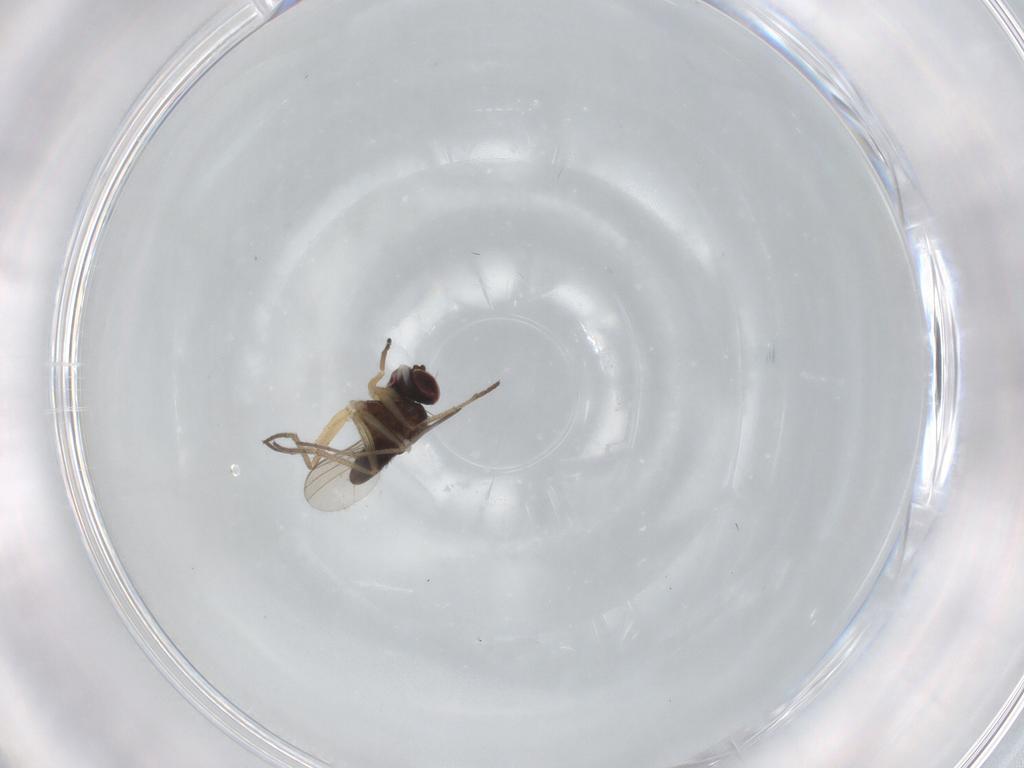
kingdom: Animalia
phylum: Arthropoda
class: Insecta
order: Diptera
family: Dolichopodidae
